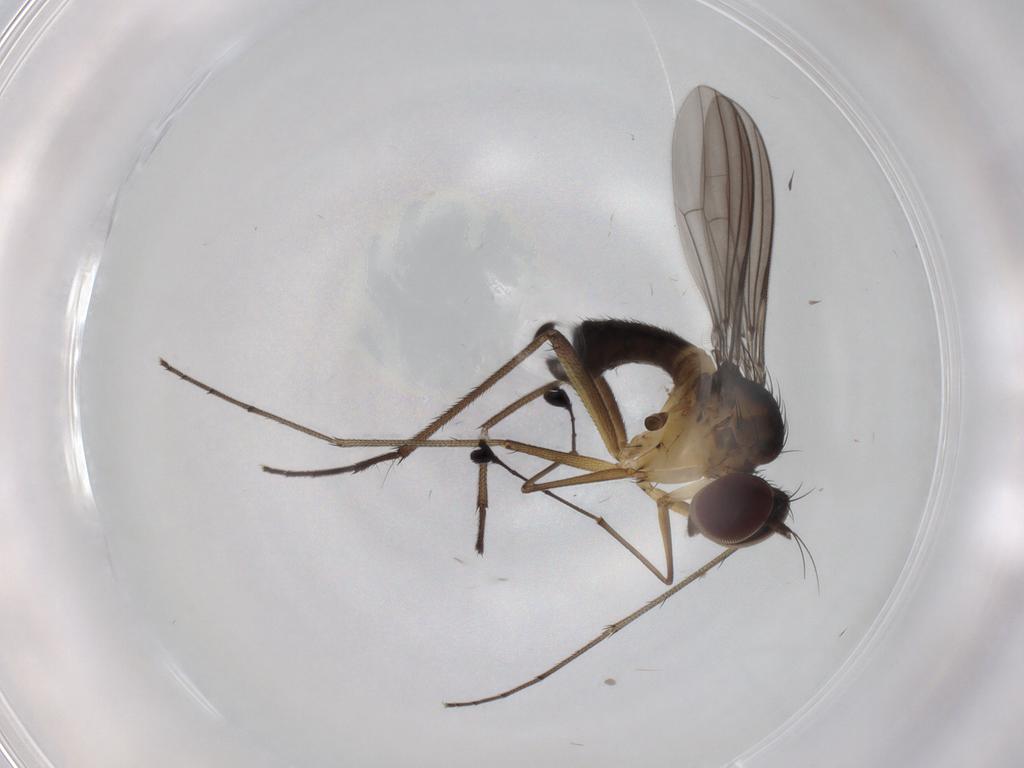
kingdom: Animalia
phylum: Arthropoda
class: Insecta
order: Diptera
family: Dolichopodidae
